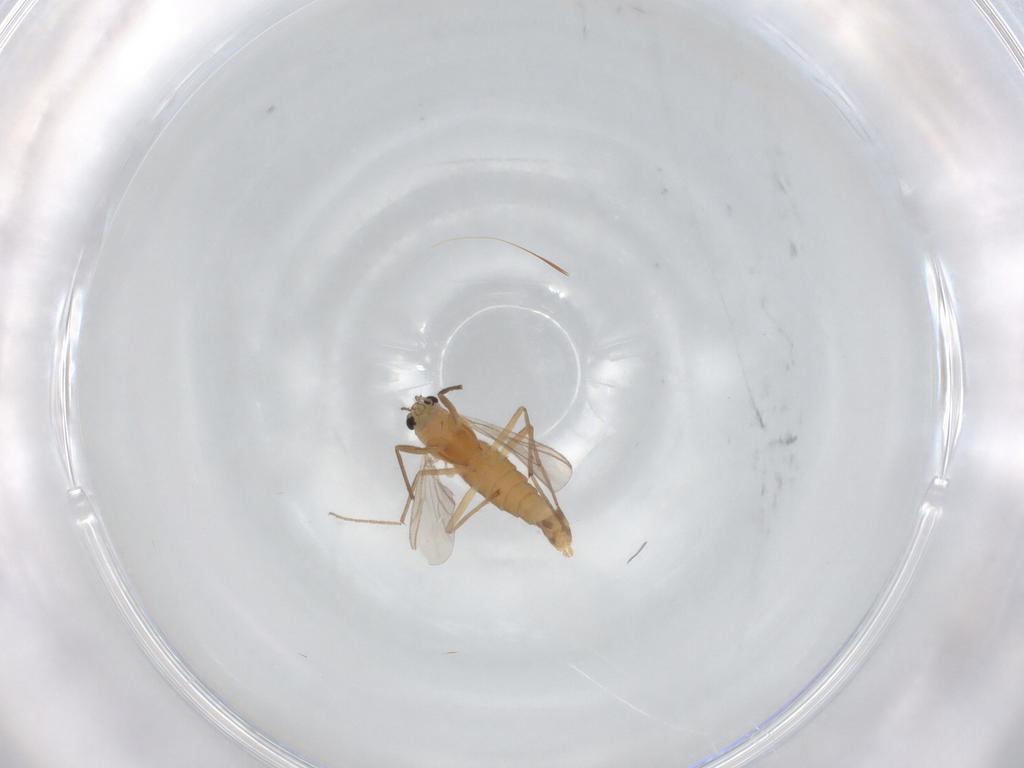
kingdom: Animalia
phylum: Arthropoda
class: Insecta
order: Diptera
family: Chironomidae
